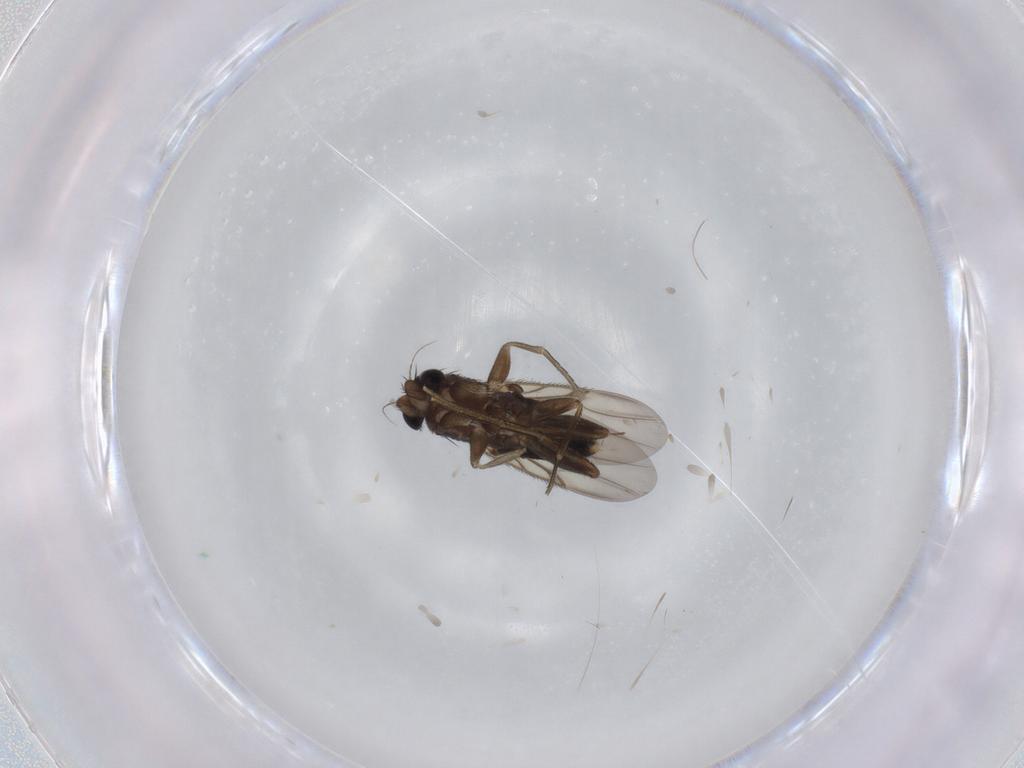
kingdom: Animalia
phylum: Arthropoda
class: Insecta
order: Diptera
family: Phoridae
